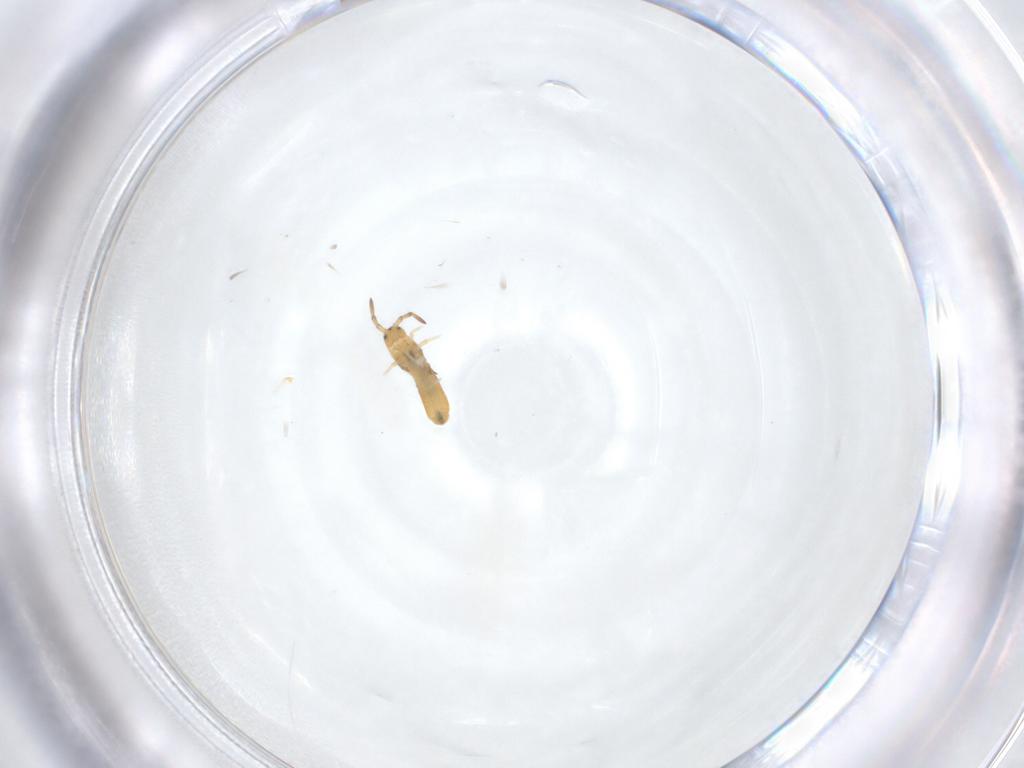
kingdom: Animalia
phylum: Arthropoda
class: Collembola
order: Entomobryomorpha
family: Entomobryidae
